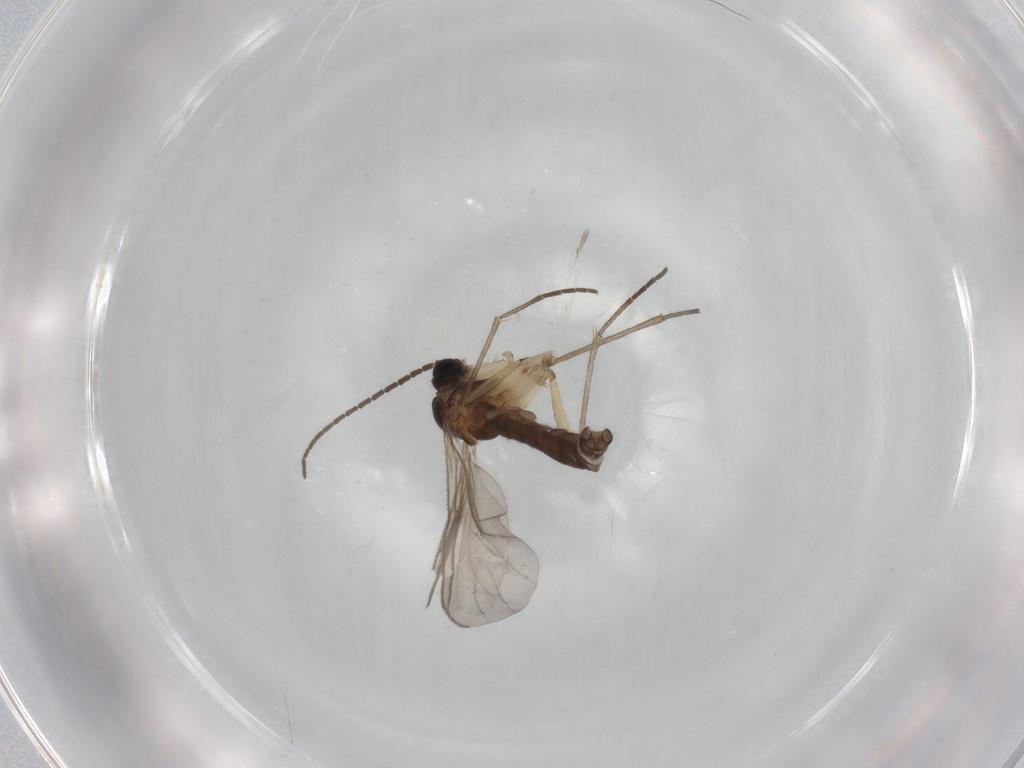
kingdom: Animalia
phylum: Arthropoda
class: Insecta
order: Diptera
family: Sciaridae
